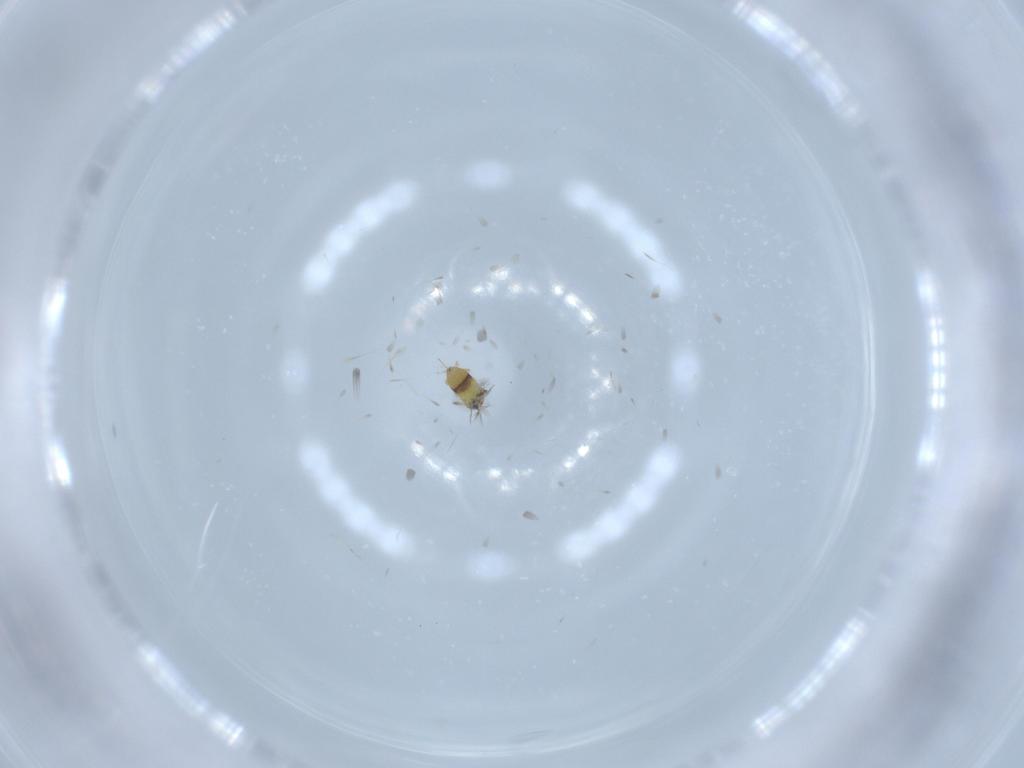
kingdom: Animalia
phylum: Arthropoda
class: Insecta
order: Hymenoptera
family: Signiphoridae
